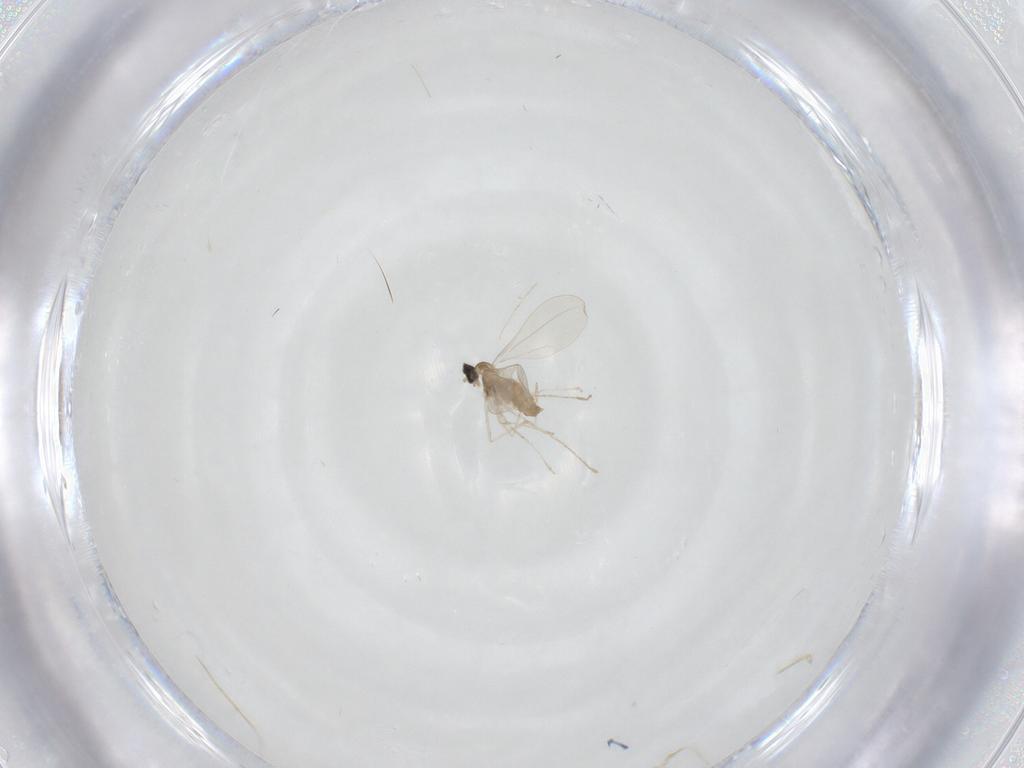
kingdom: Animalia
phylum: Arthropoda
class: Insecta
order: Diptera
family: Cecidomyiidae
